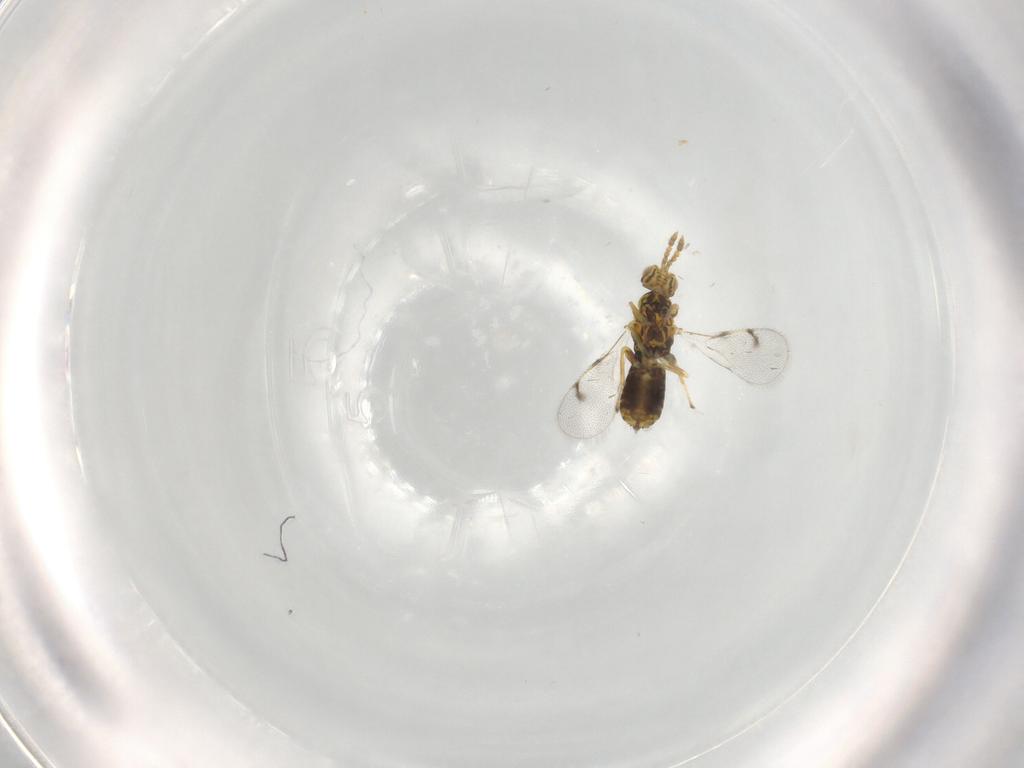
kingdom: Animalia
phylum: Arthropoda
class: Insecta
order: Hymenoptera
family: Eulophidae
